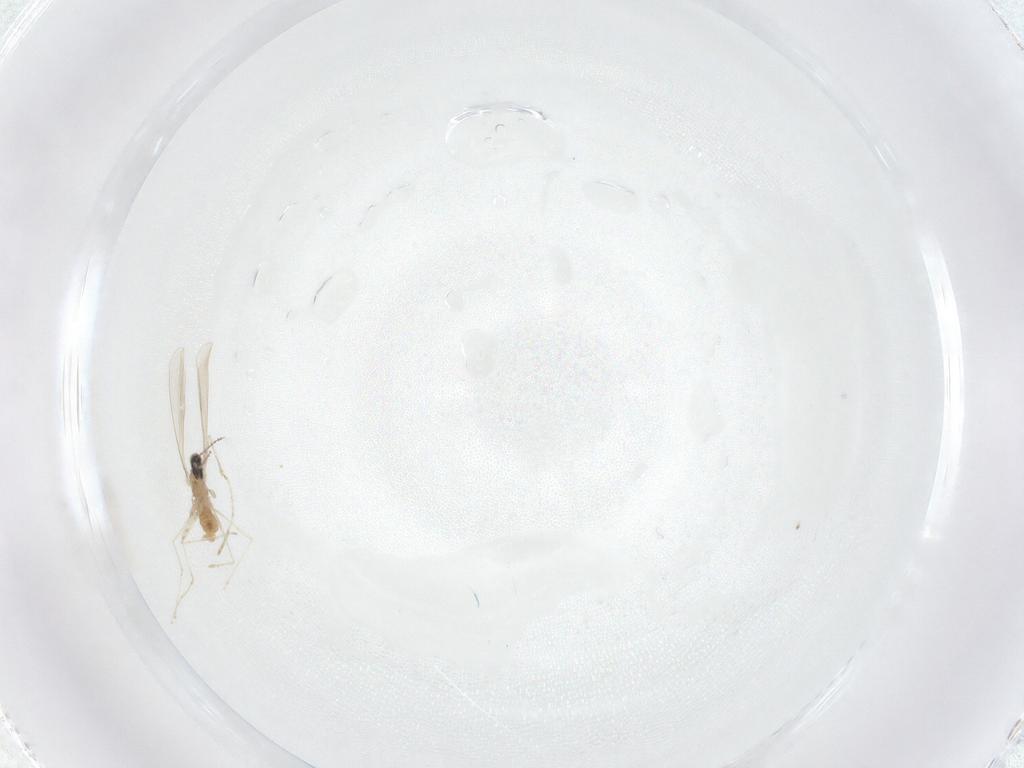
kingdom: Animalia
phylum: Arthropoda
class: Insecta
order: Diptera
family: Cecidomyiidae
